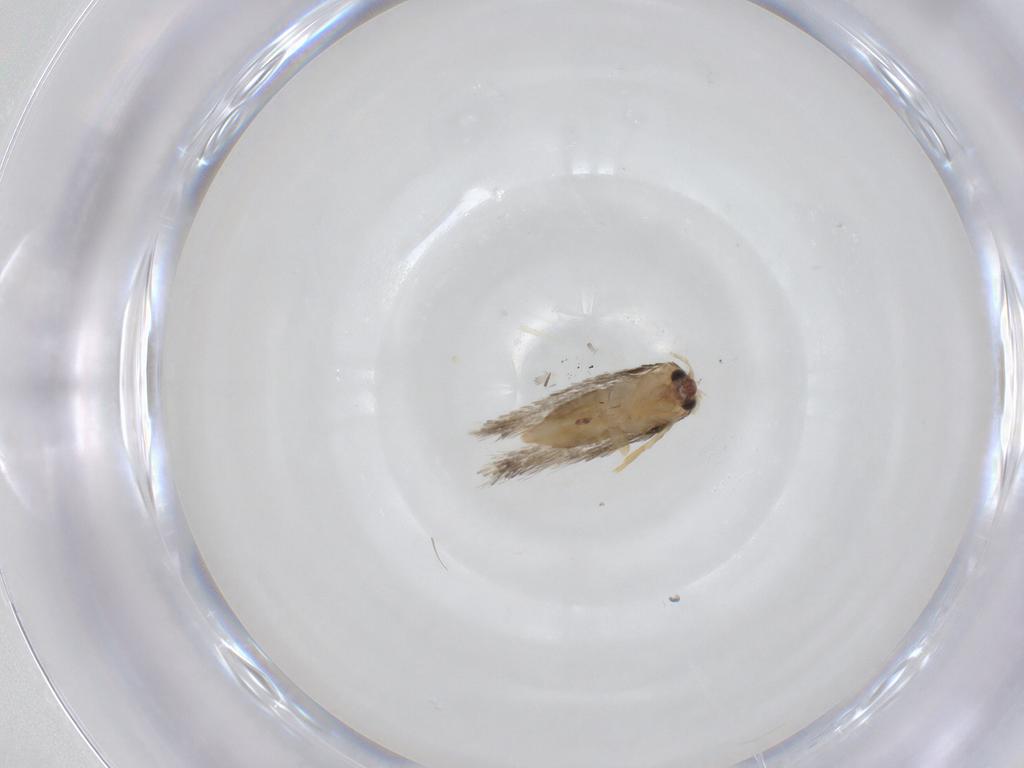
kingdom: Animalia
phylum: Arthropoda
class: Insecta
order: Lepidoptera
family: Nepticulidae
